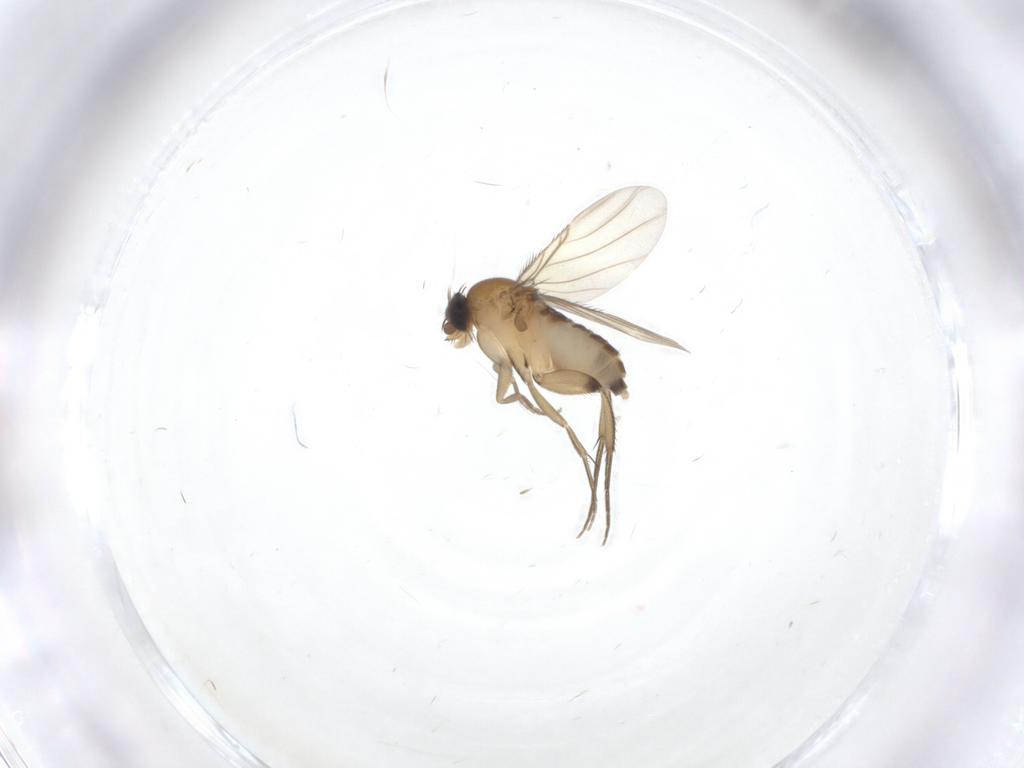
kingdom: Animalia
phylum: Arthropoda
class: Insecta
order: Diptera
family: Phoridae
